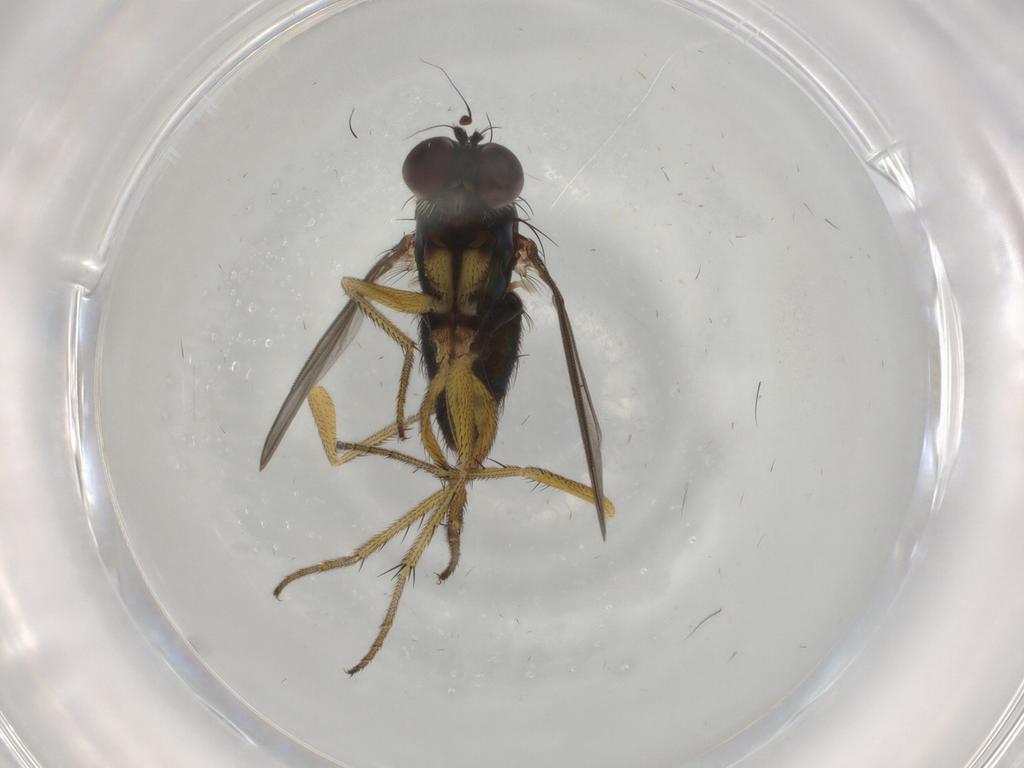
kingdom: Animalia
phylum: Arthropoda
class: Insecta
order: Diptera
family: Dolichopodidae
